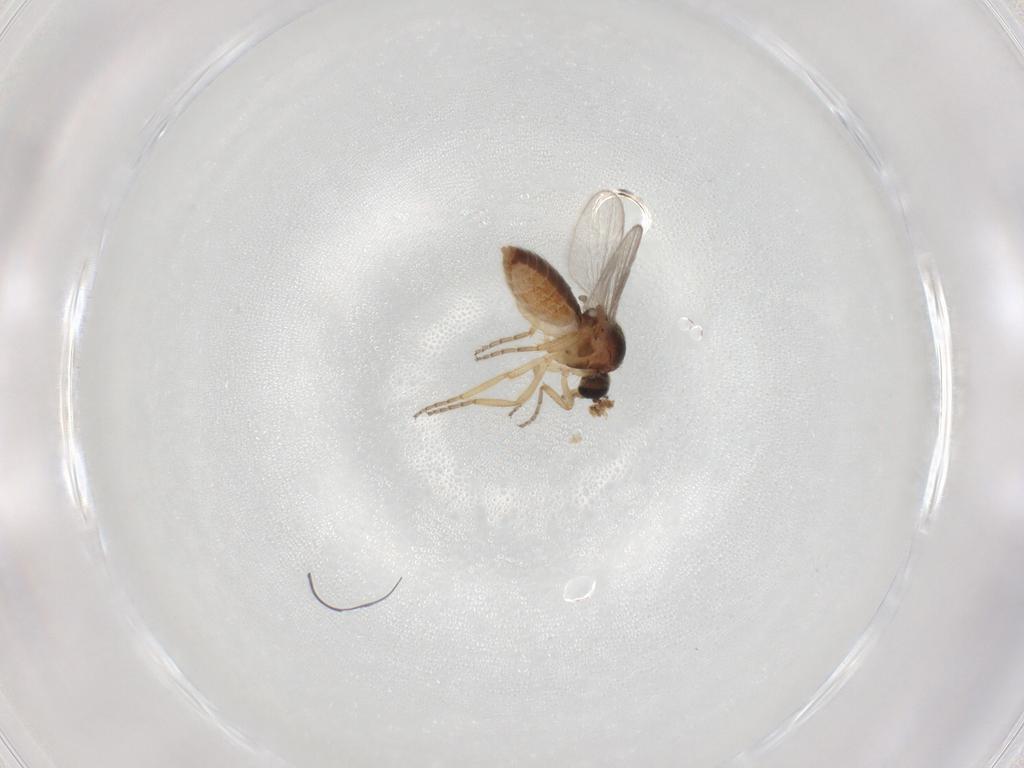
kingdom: Animalia
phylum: Arthropoda
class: Insecta
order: Diptera
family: Ceratopogonidae
